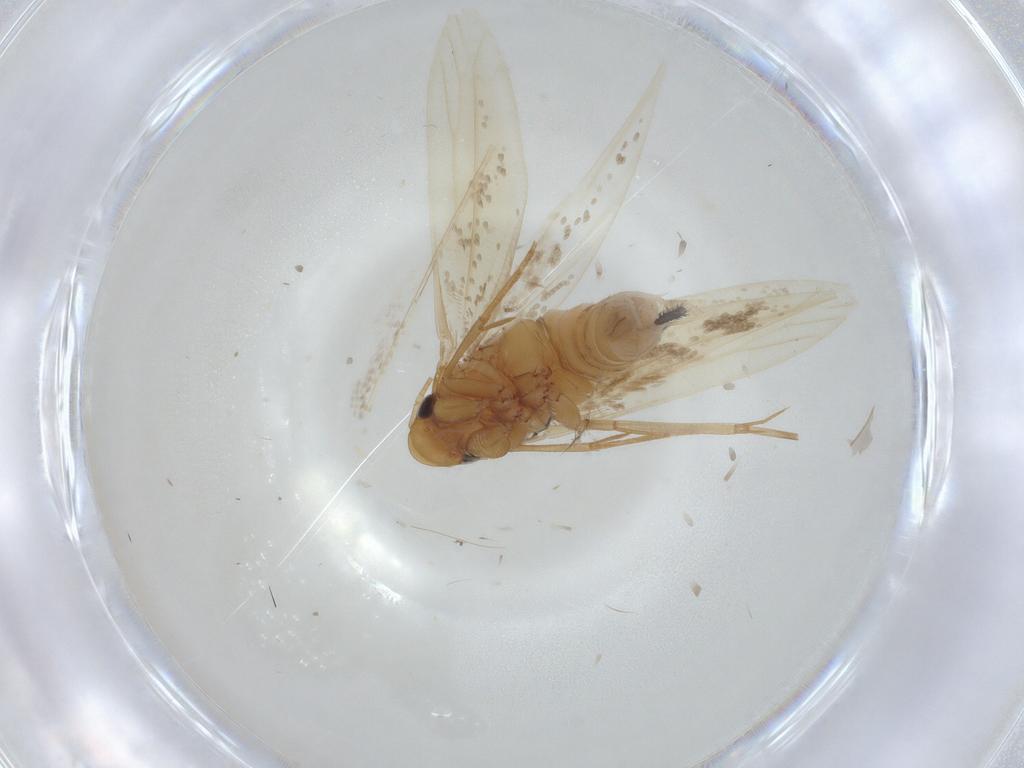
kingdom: Animalia
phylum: Arthropoda
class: Insecta
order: Lepidoptera
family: Tineidae
